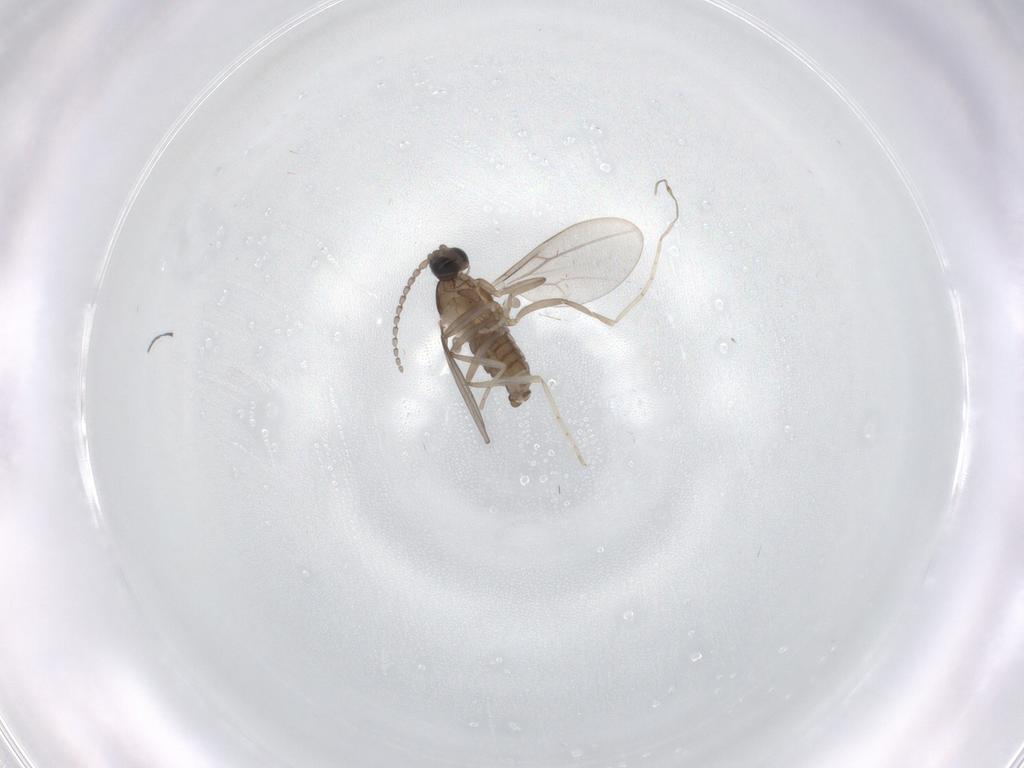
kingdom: Animalia
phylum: Arthropoda
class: Insecta
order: Diptera
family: Cecidomyiidae
